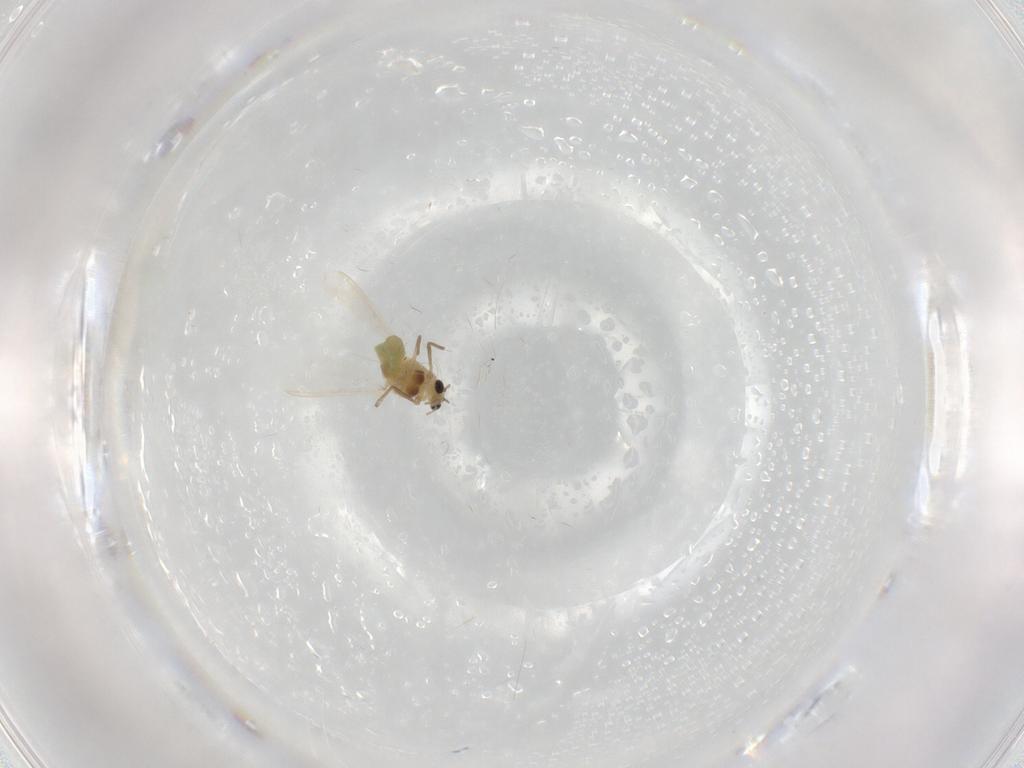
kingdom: Animalia
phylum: Arthropoda
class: Insecta
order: Diptera
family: Chironomidae
